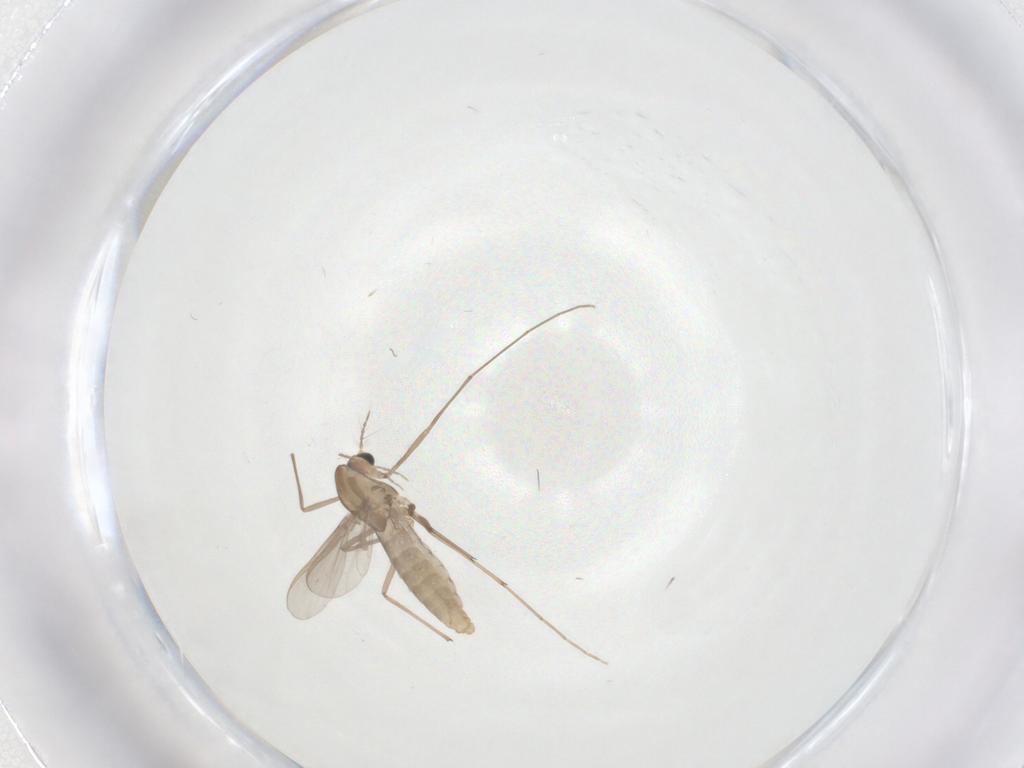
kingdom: Animalia
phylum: Arthropoda
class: Insecta
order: Diptera
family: Chironomidae
